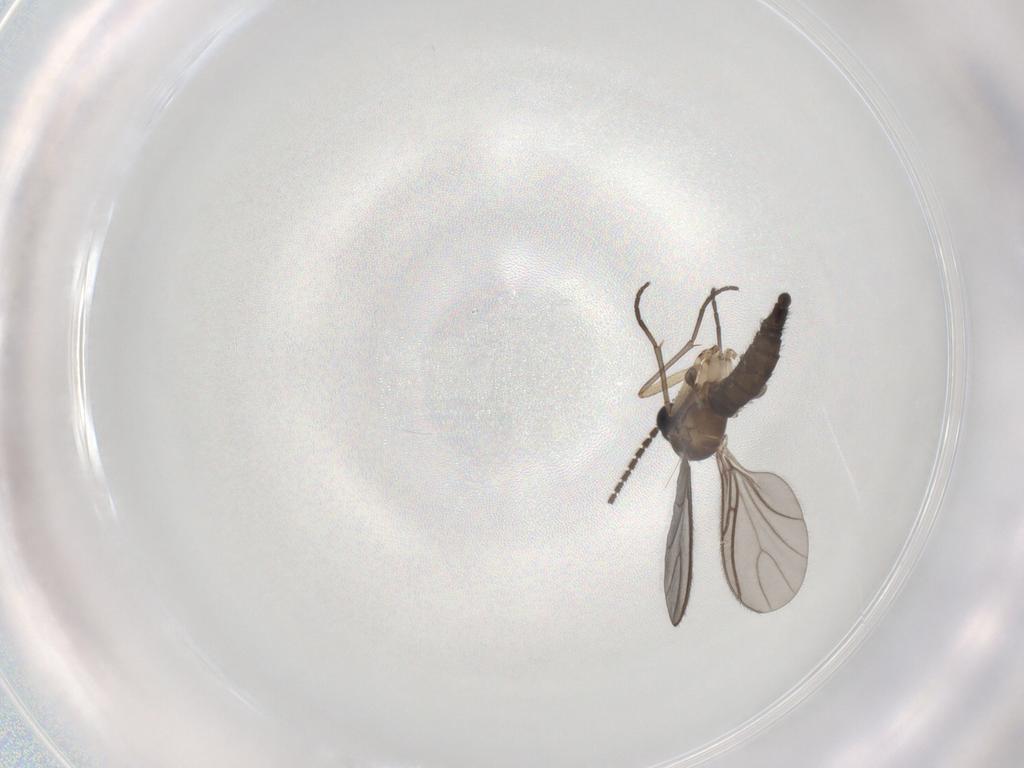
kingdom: Animalia
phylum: Arthropoda
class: Insecta
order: Diptera
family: Sciaridae
